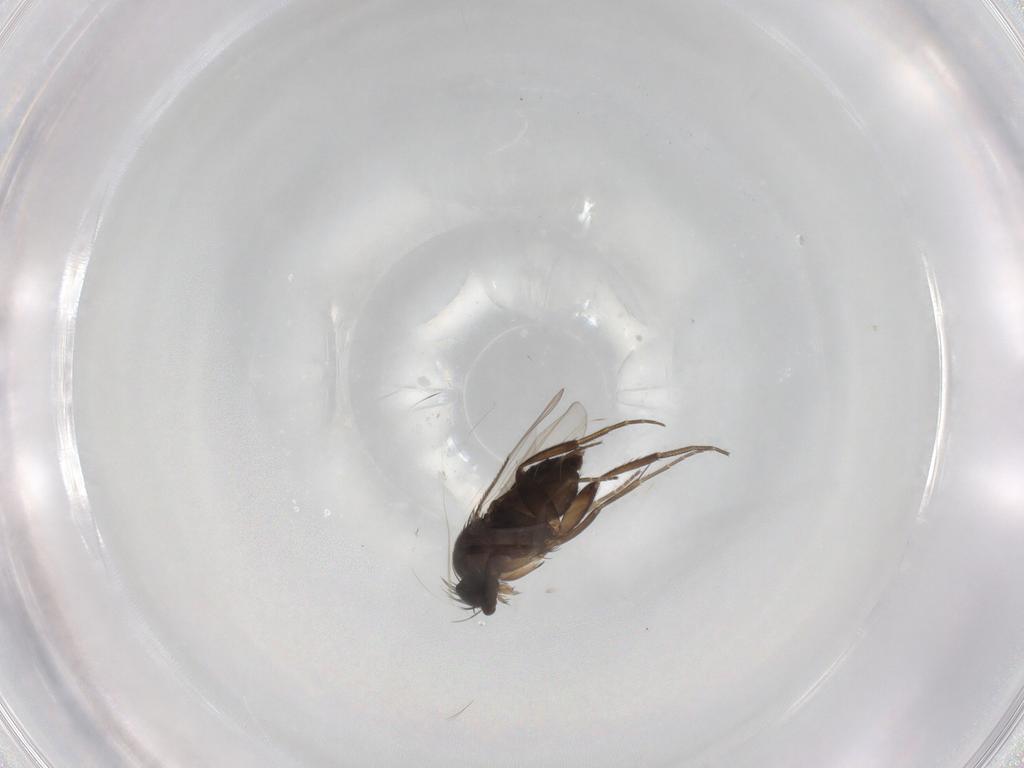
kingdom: Animalia
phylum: Arthropoda
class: Insecta
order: Diptera
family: Phoridae
